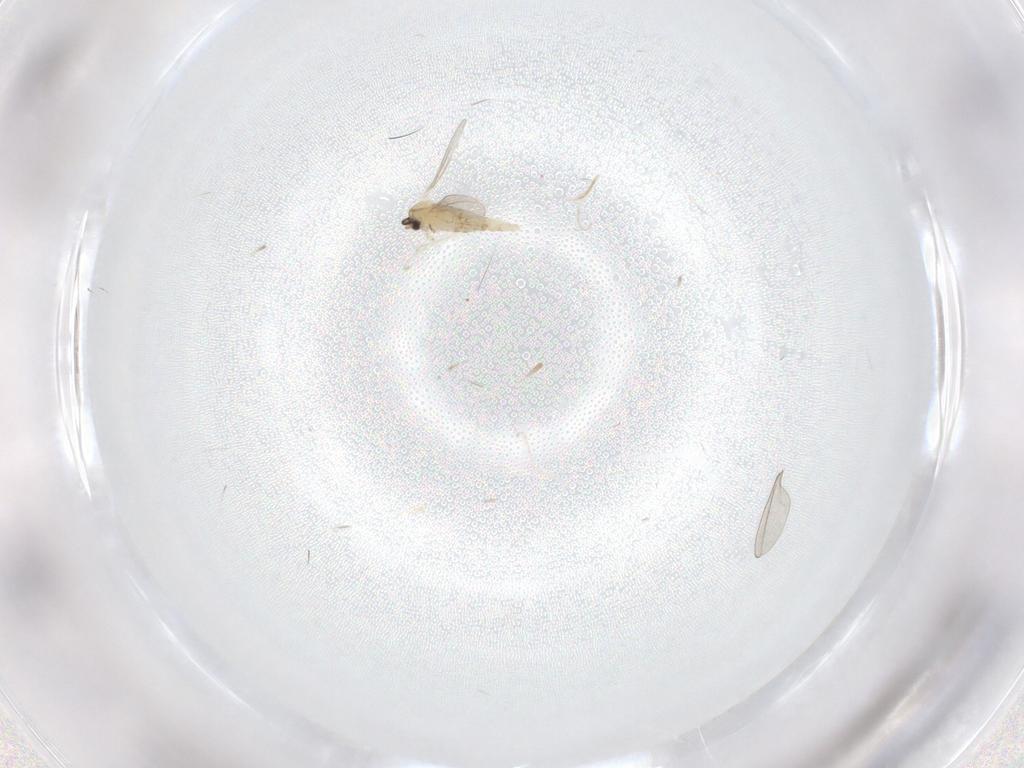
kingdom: Animalia
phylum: Arthropoda
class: Insecta
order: Diptera
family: Cecidomyiidae
